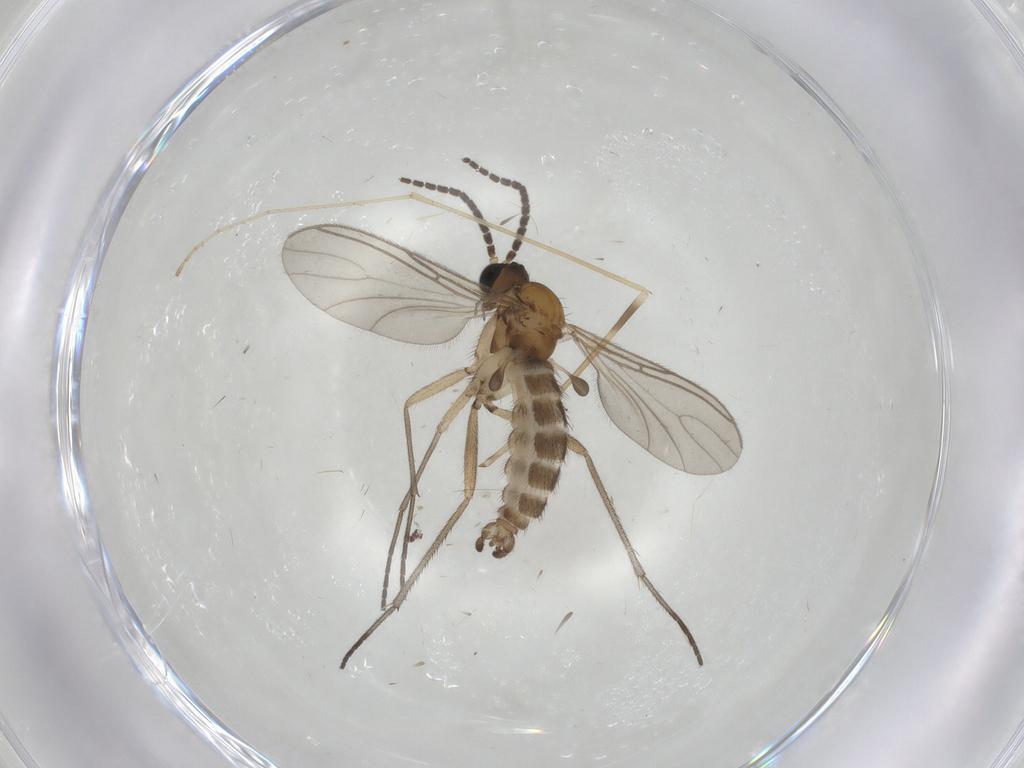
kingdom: Animalia
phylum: Arthropoda
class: Insecta
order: Diptera
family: Sciaridae
